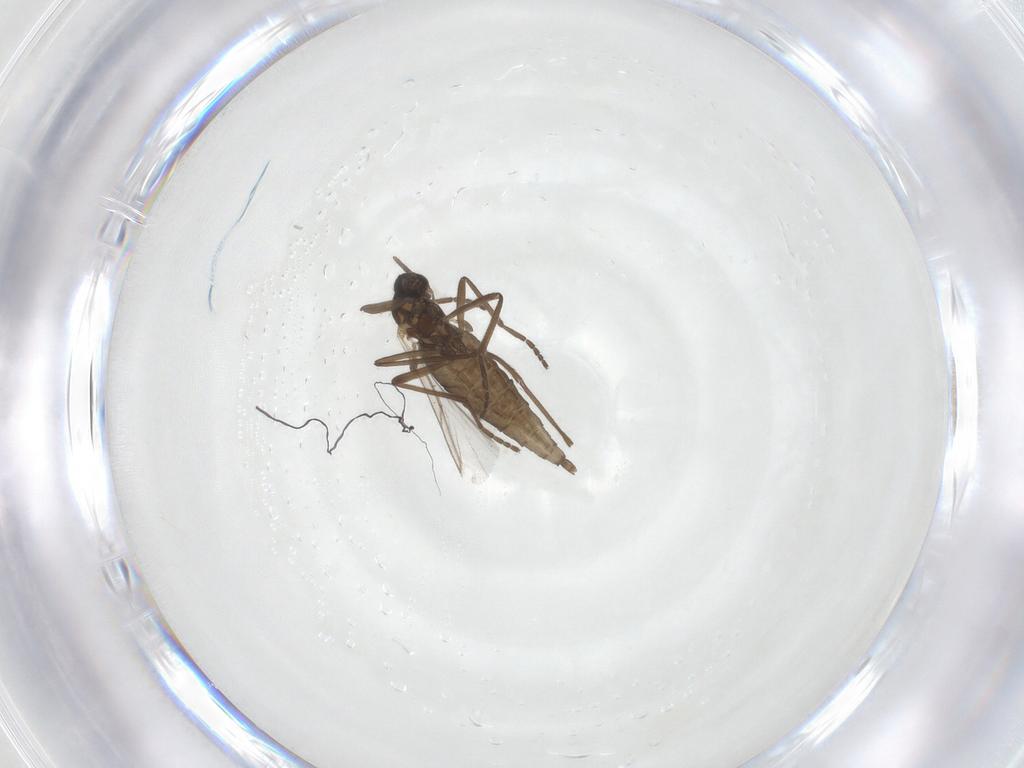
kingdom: Animalia
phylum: Arthropoda
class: Insecta
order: Diptera
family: Cecidomyiidae
